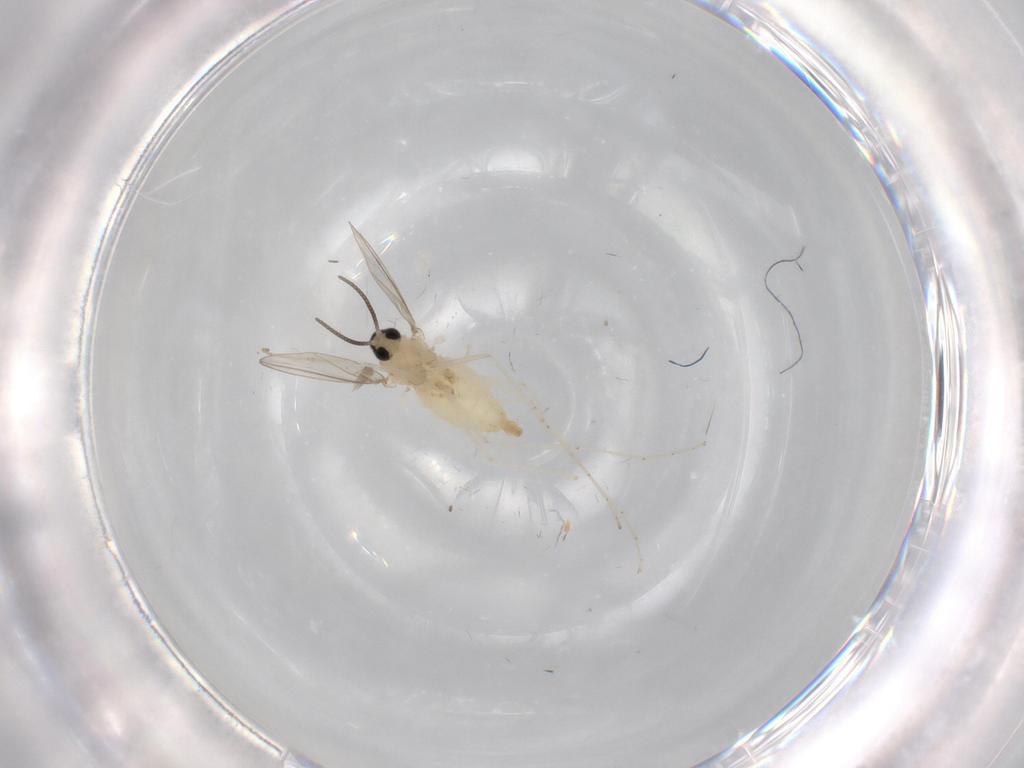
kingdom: Animalia
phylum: Arthropoda
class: Insecta
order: Diptera
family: Cecidomyiidae
